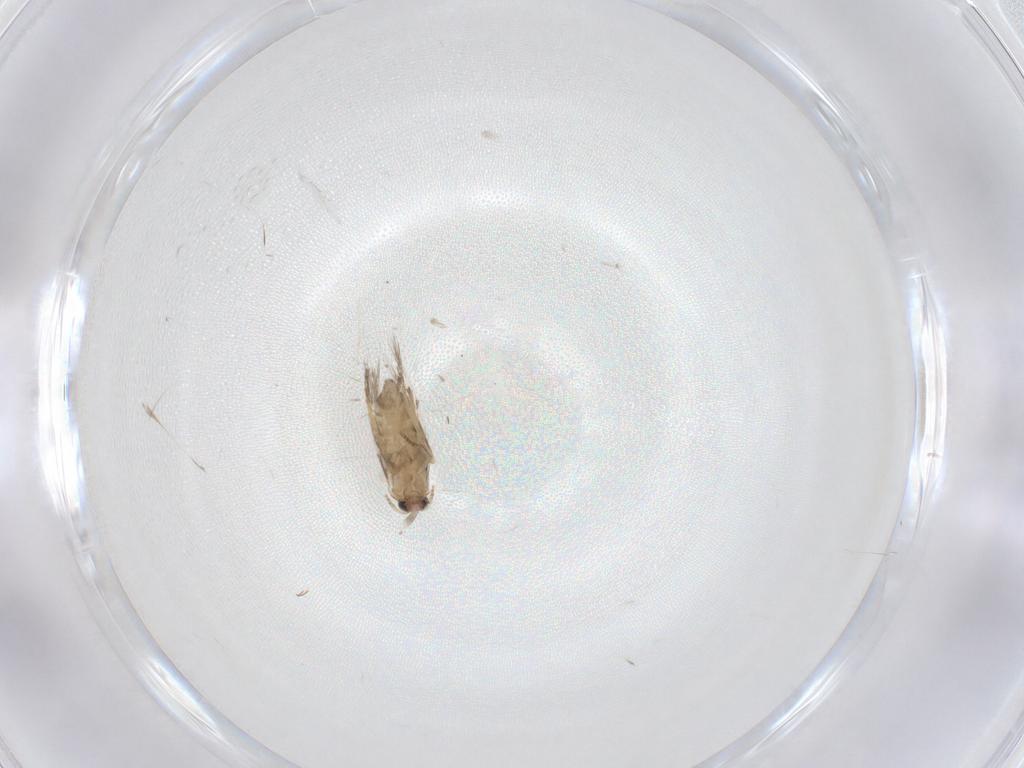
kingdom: Animalia
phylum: Arthropoda
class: Insecta
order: Lepidoptera
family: Nepticulidae
